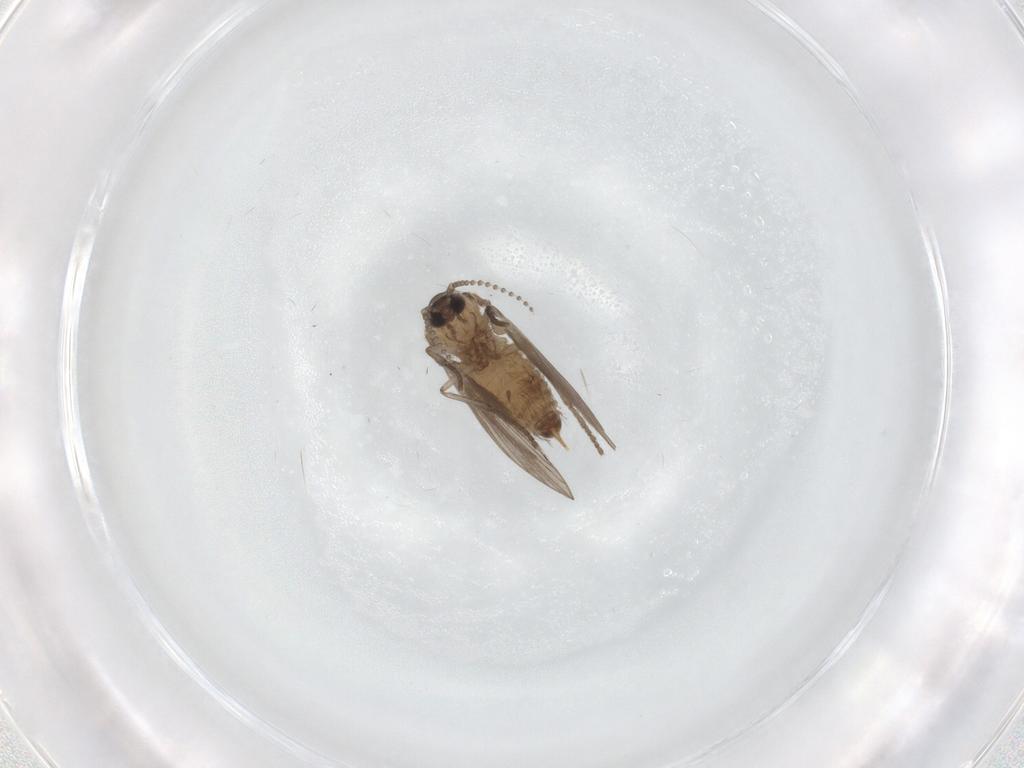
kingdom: Animalia
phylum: Arthropoda
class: Insecta
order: Diptera
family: Psychodidae
